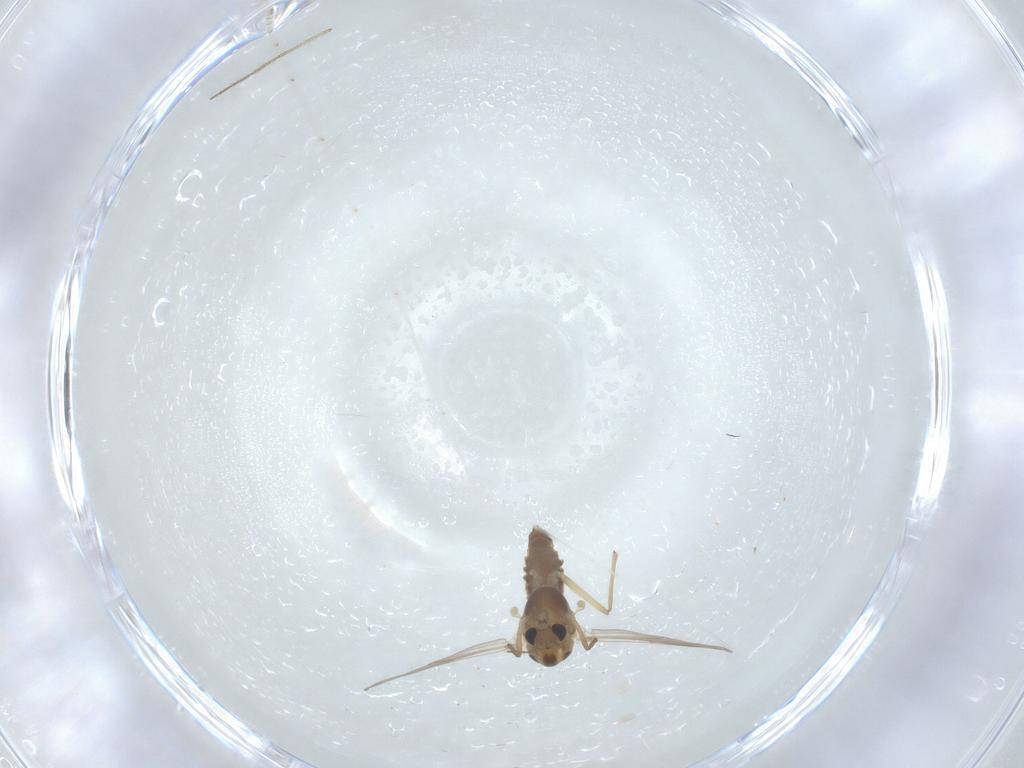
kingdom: Animalia
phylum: Arthropoda
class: Insecta
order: Diptera
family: Chironomidae
